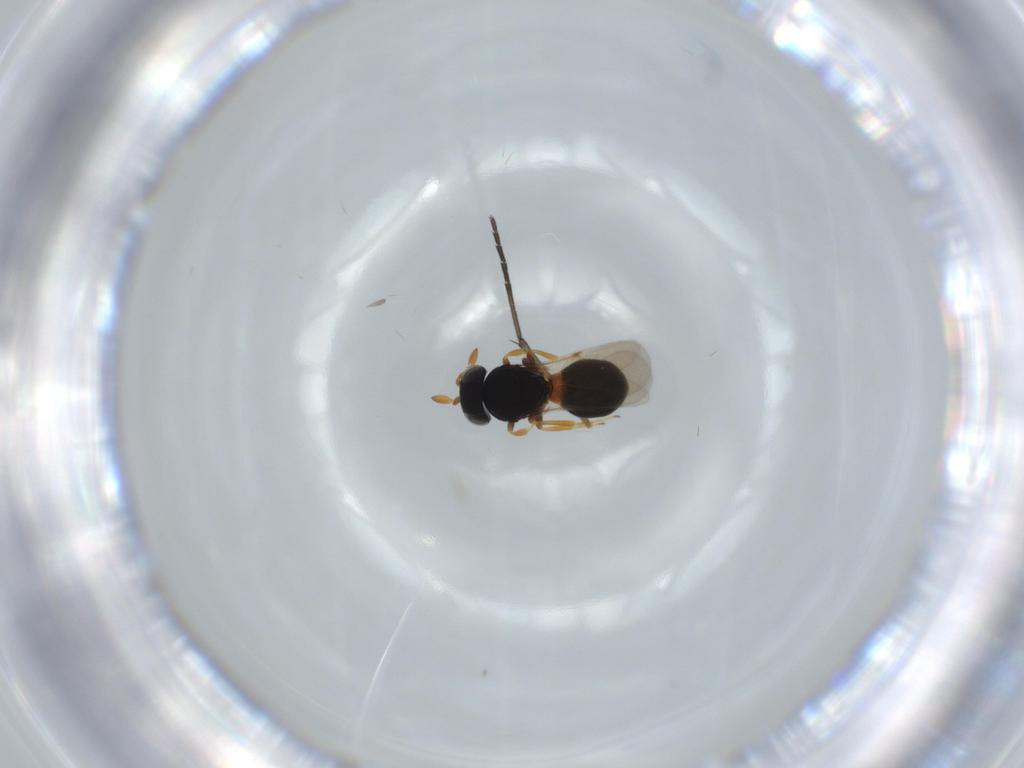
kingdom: Animalia
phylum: Arthropoda
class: Insecta
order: Hymenoptera
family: Scelionidae
